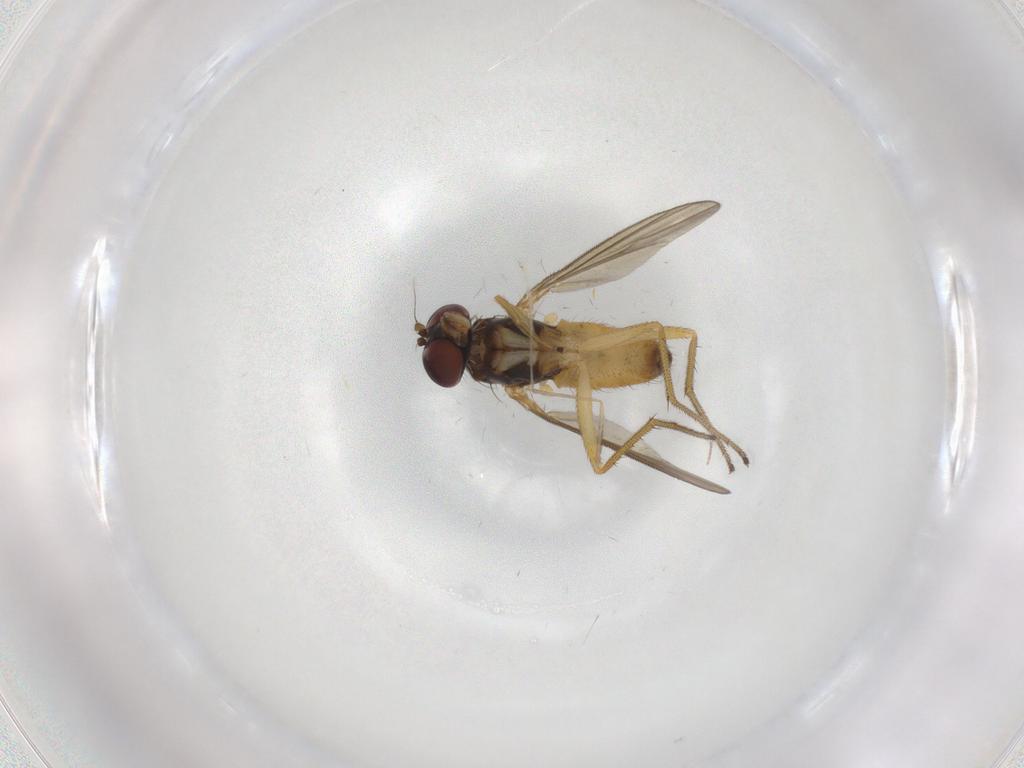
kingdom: Animalia
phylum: Arthropoda
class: Insecta
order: Diptera
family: Dolichopodidae
